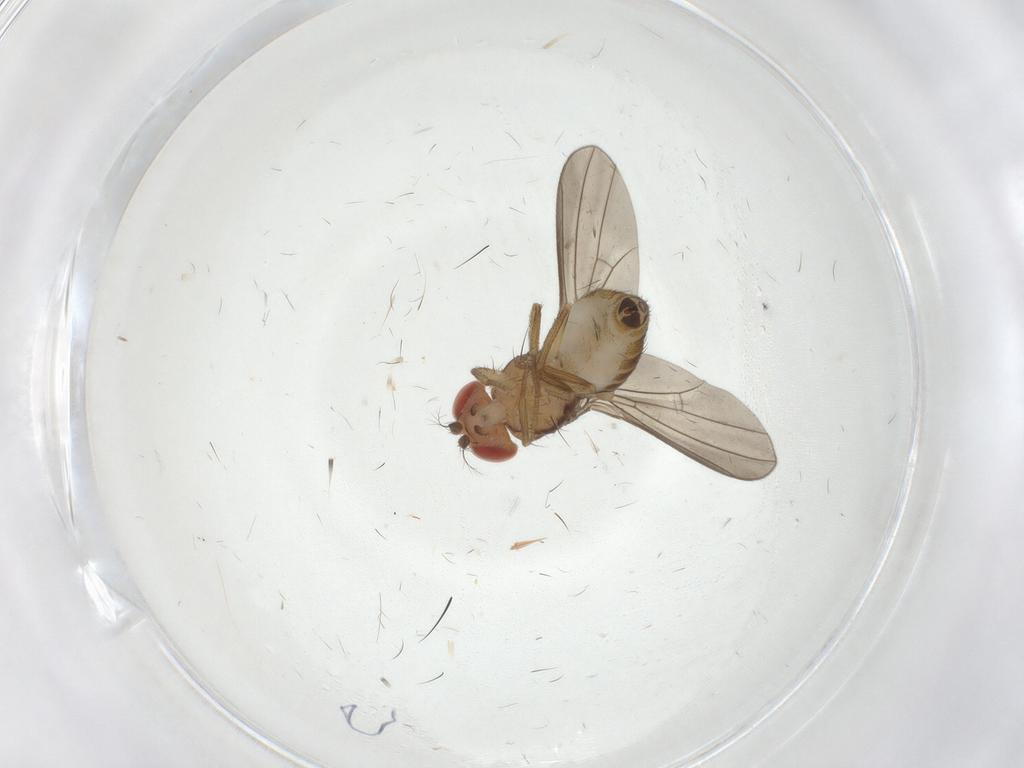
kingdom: Animalia
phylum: Arthropoda
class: Insecta
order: Diptera
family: Drosophilidae
